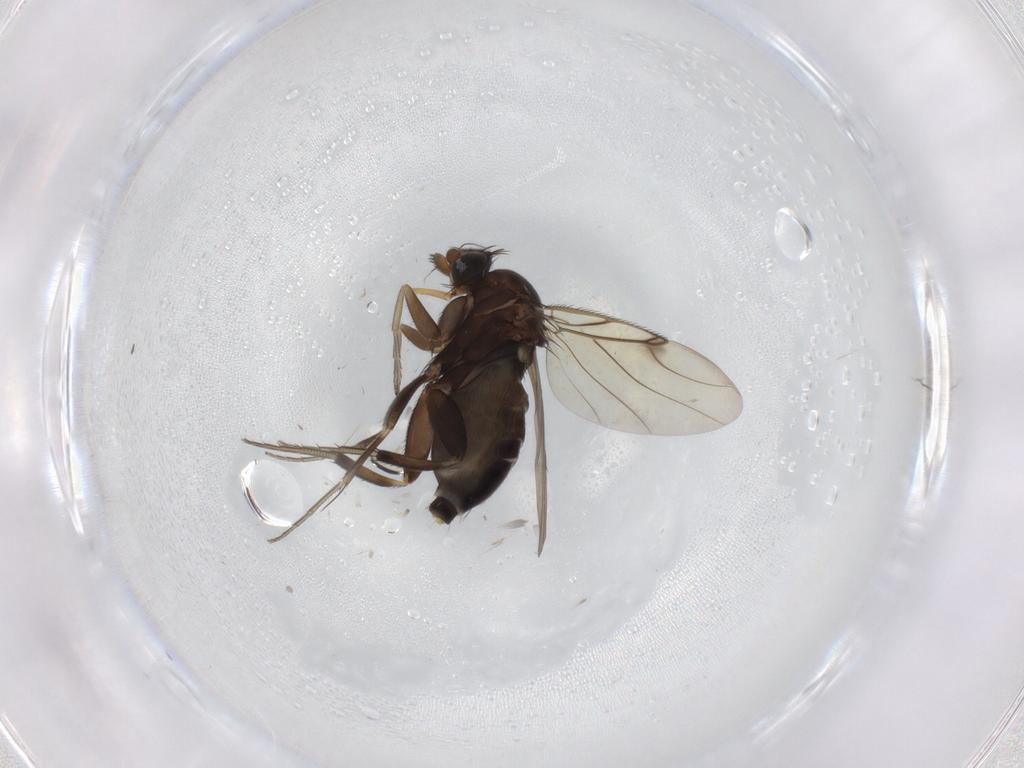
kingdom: Animalia
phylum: Arthropoda
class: Insecta
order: Diptera
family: Phoridae
